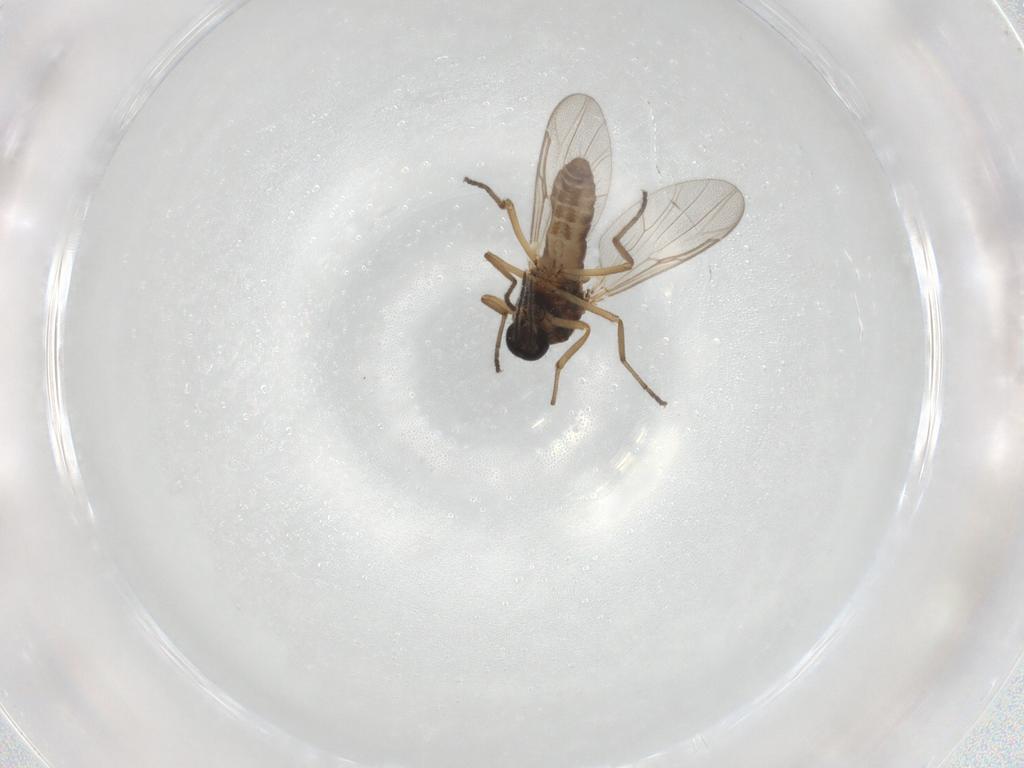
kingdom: Animalia
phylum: Arthropoda
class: Insecta
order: Diptera
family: Ceratopogonidae
